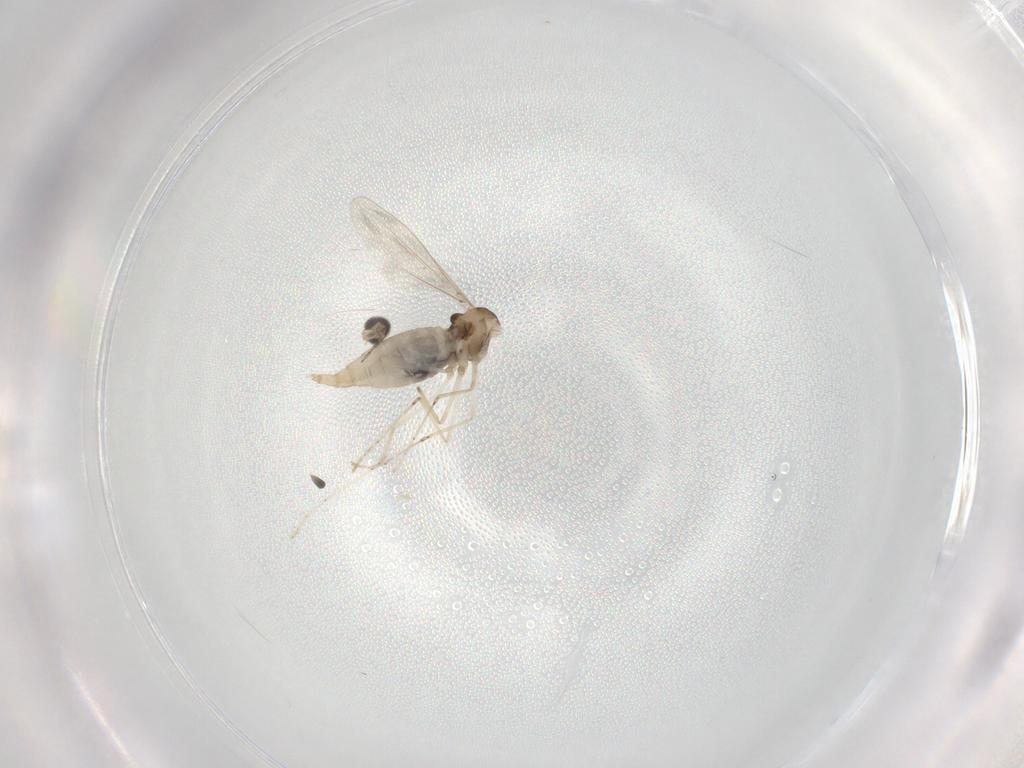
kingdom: Animalia
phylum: Arthropoda
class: Insecta
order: Diptera
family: Cecidomyiidae
